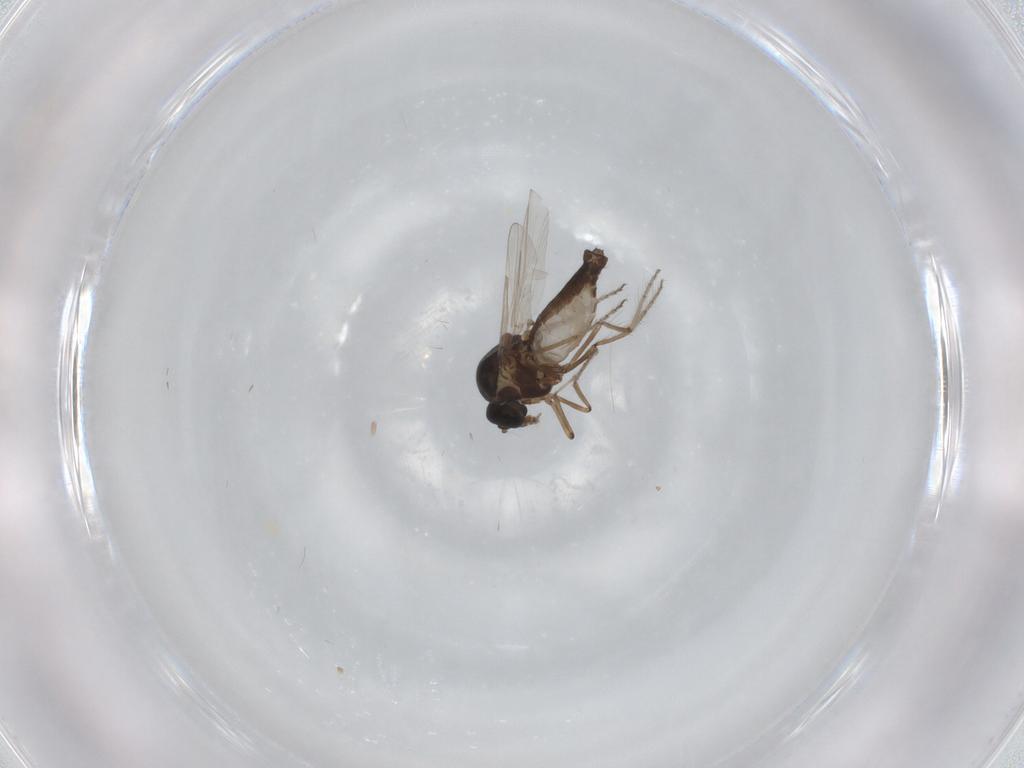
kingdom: Animalia
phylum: Arthropoda
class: Insecta
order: Diptera
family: Ceratopogonidae
